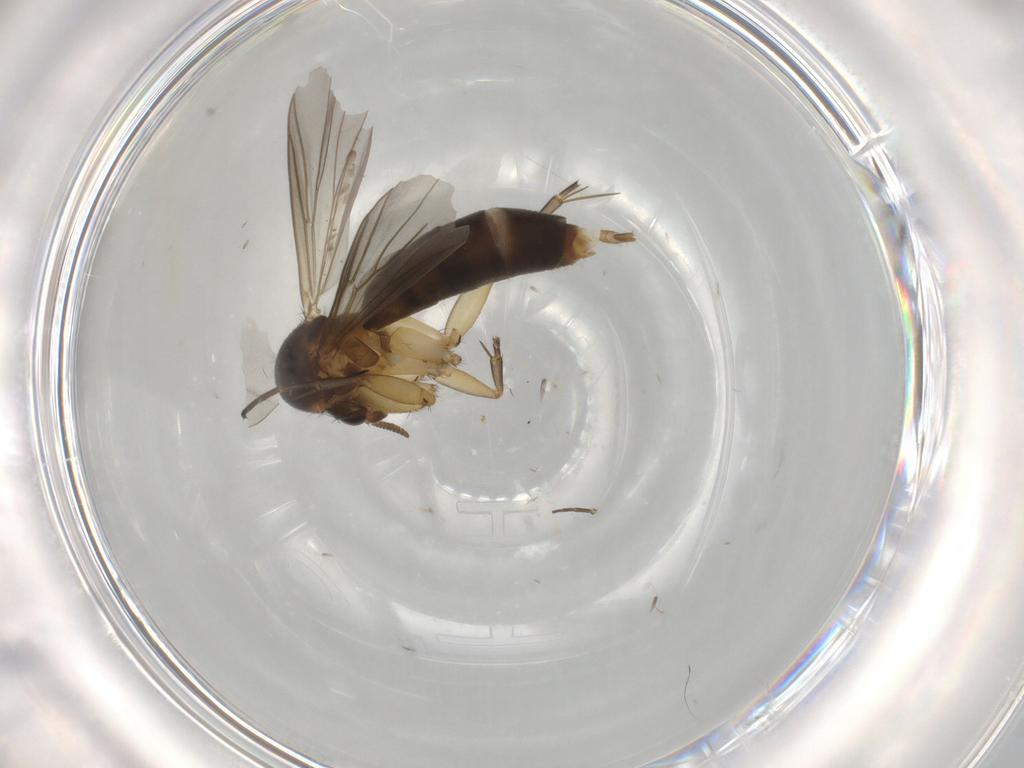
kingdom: Animalia
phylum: Arthropoda
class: Insecta
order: Diptera
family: Mycetophilidae
